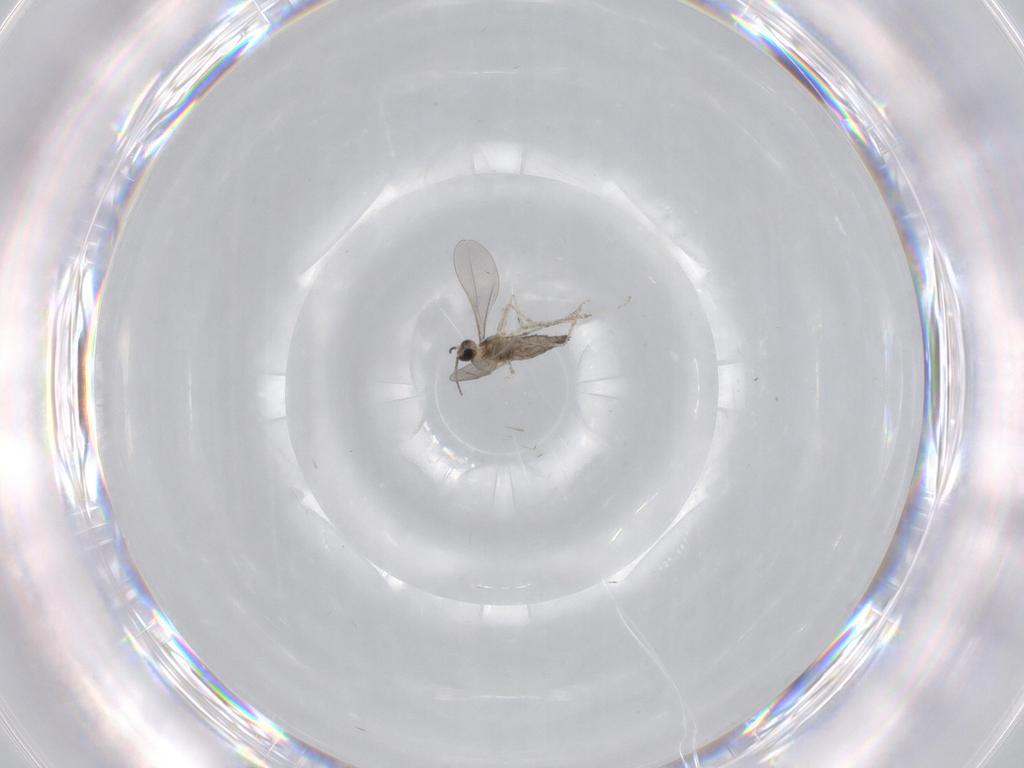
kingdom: Animalia
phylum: Arthropoda
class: Insecta
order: Diptera
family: Cecidomyiidae
